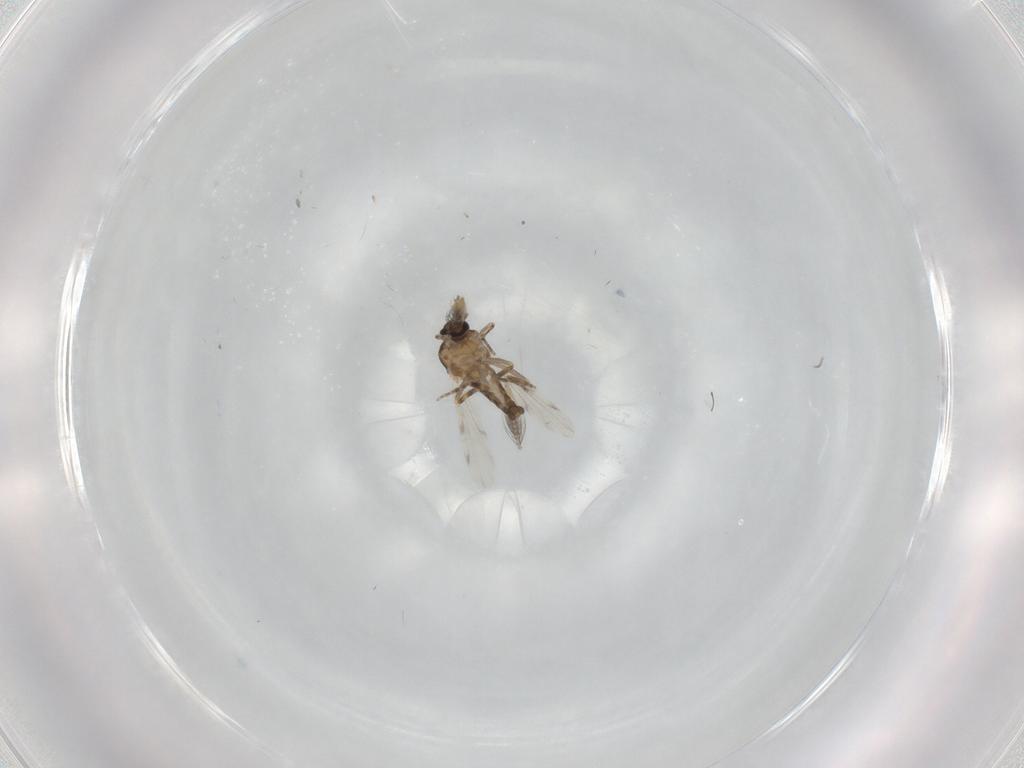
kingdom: Animalia
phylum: Arthropoda
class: Insecta
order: Diptera
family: Ceratopogonidae
